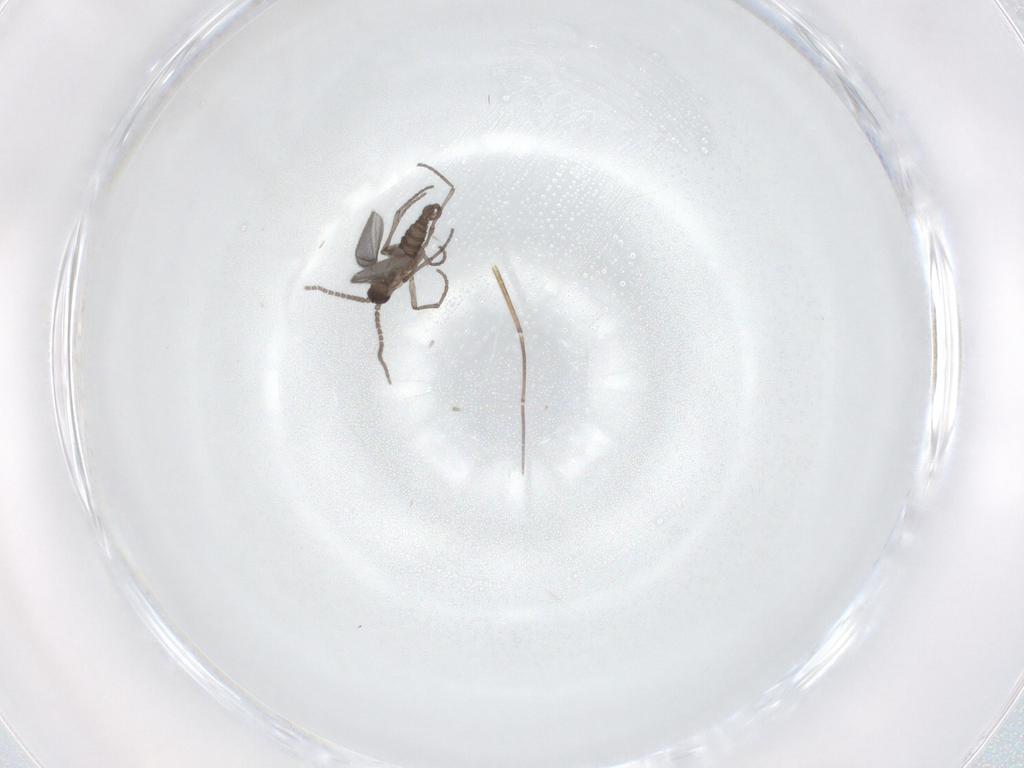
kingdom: Animalia
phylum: Arthropoda
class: Insecta
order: Diptera
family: Sciaridae
